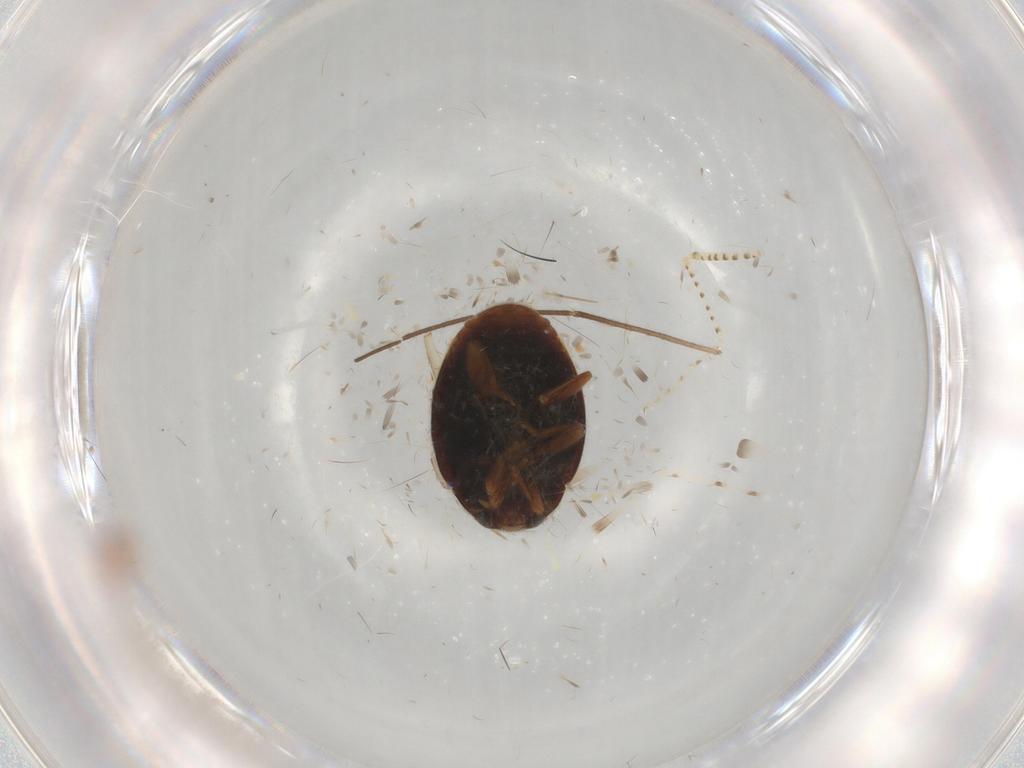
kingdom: Animalia
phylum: Arthropoda
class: Insecta
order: Coleoptera
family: Coccinellidae
